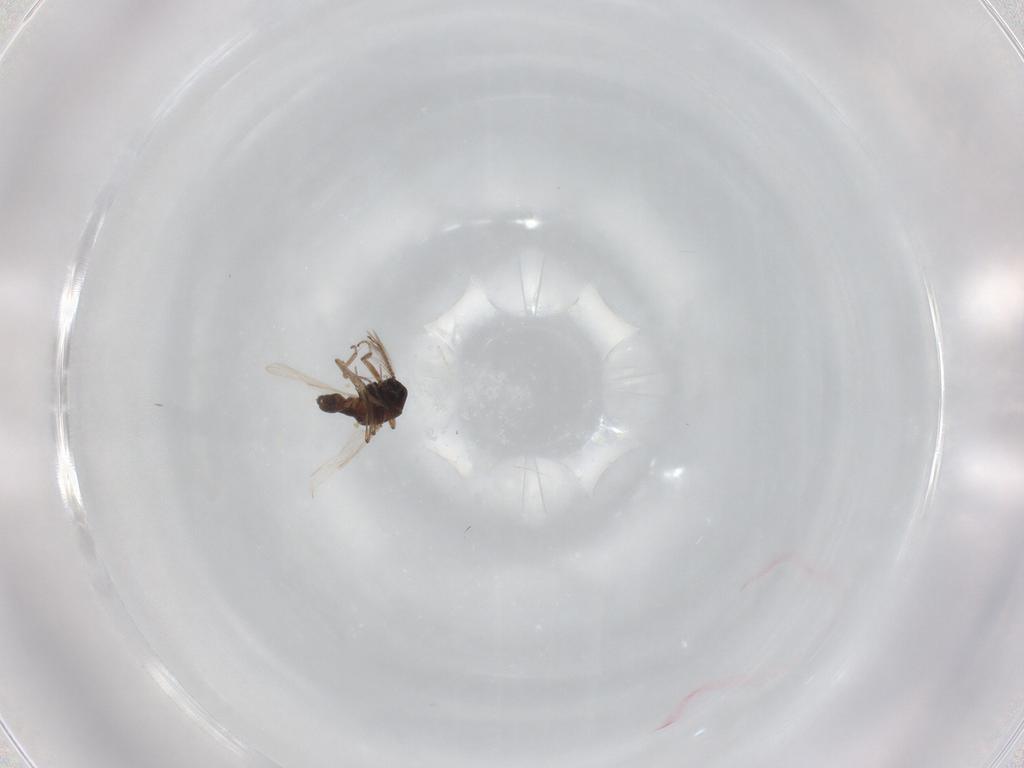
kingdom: Animalia
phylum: Arthropoda
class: Insecta
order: Diptera
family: Ceratopogonidae
